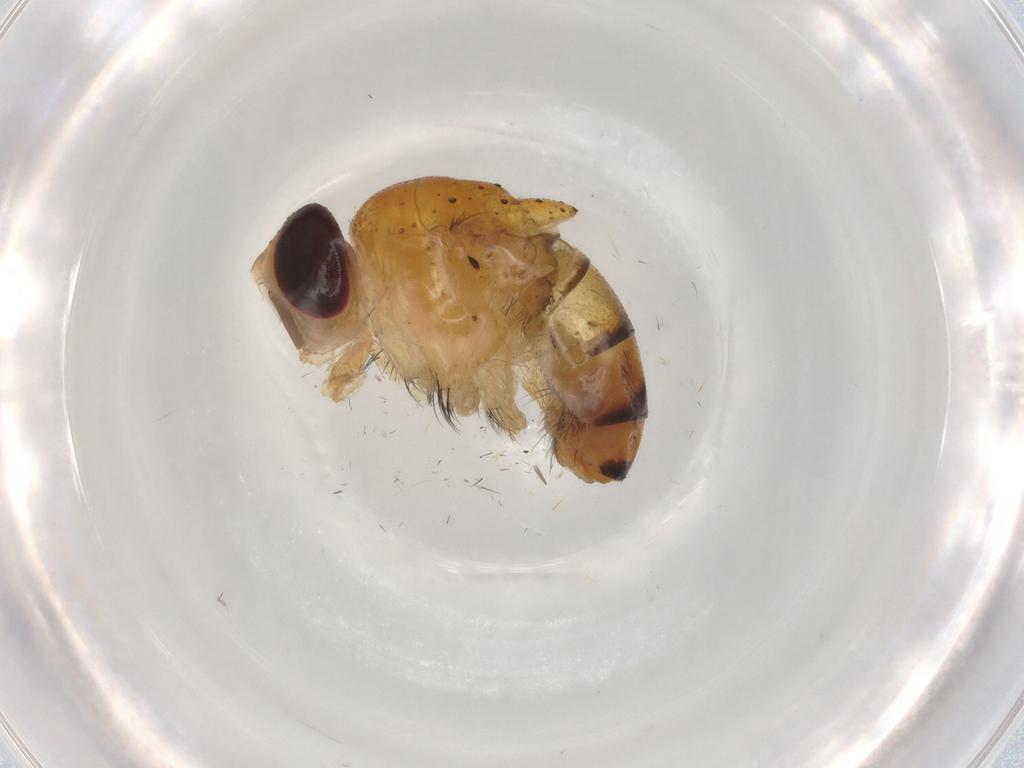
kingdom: Animalia
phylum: Arthropoda
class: Insecta
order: Diptera
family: Calliphoridae
